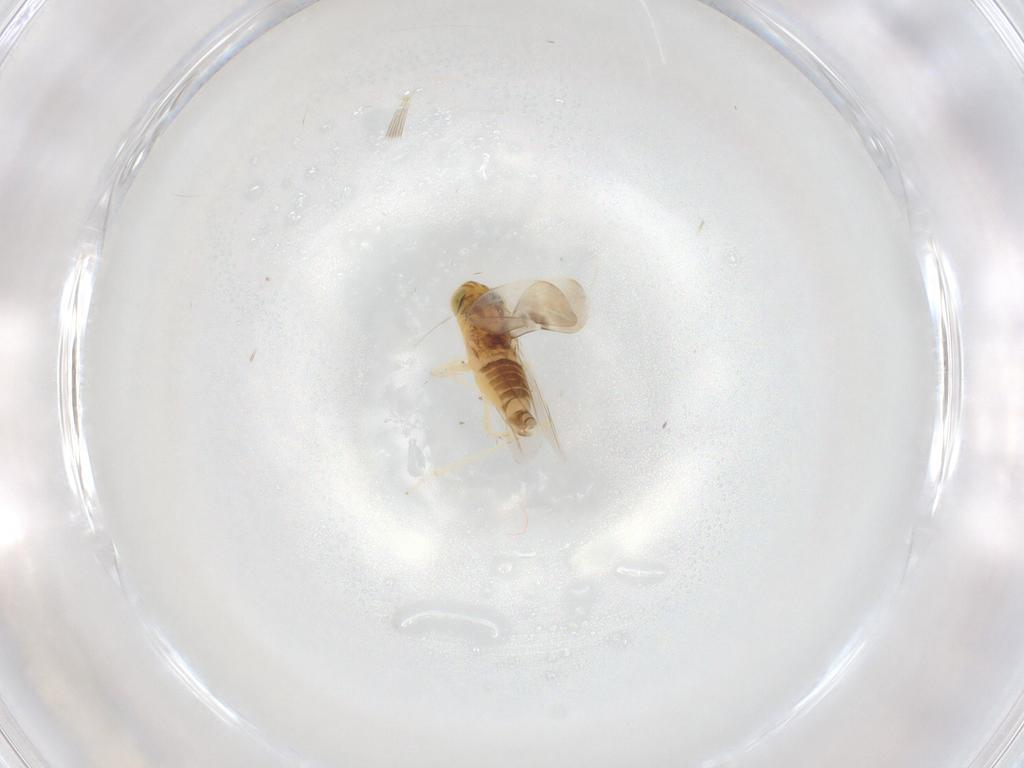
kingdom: Animalia
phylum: Arthropoda
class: Insecta
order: Hemiptera
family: Cicadellidae
